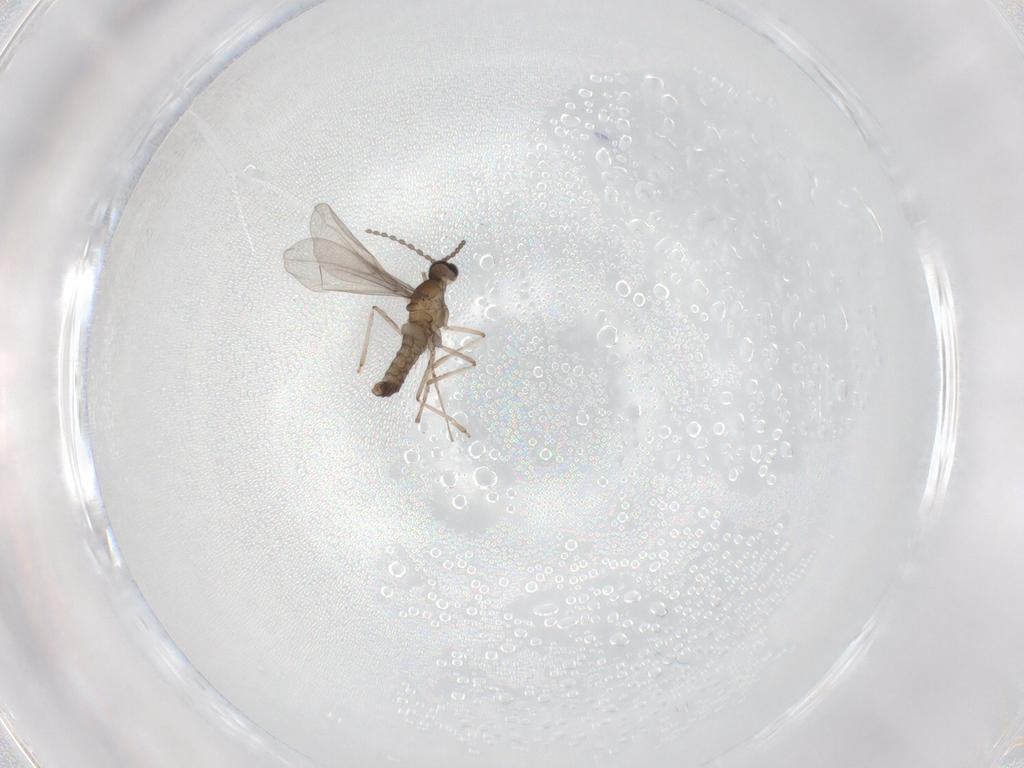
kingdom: Animalia
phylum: Arthropoda
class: Insecta
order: Diptera
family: Cecidomyiidae
